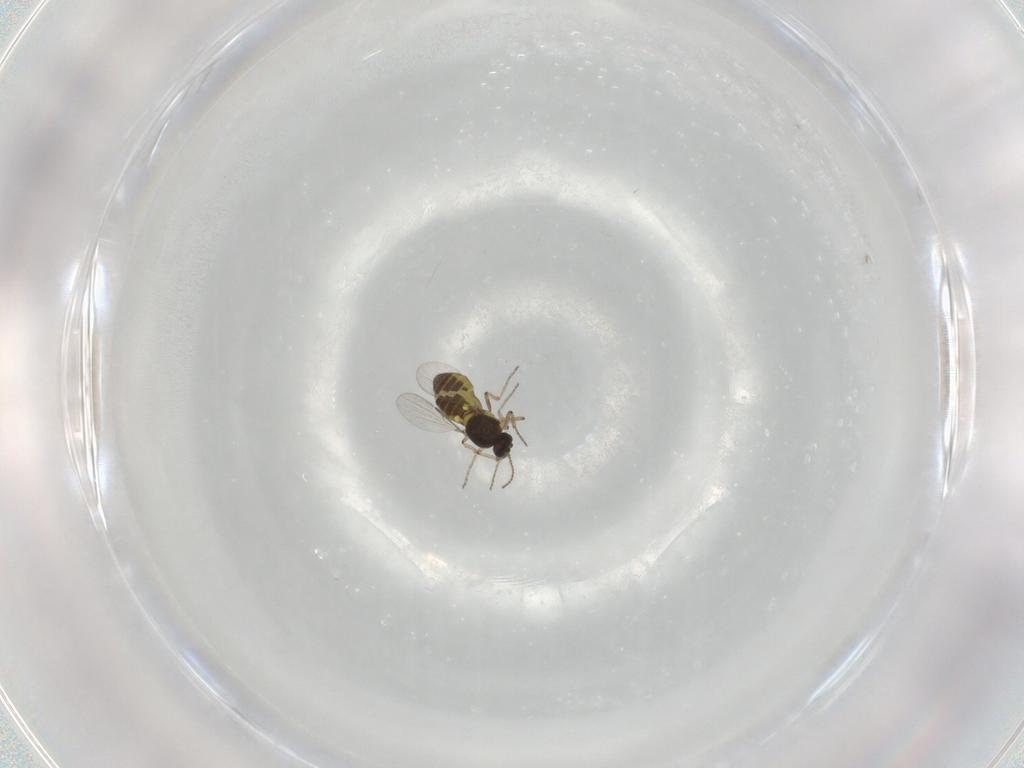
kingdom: Animalia
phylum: Arthropoda
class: Insecta
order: Diptera
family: Ceratopogonidae
